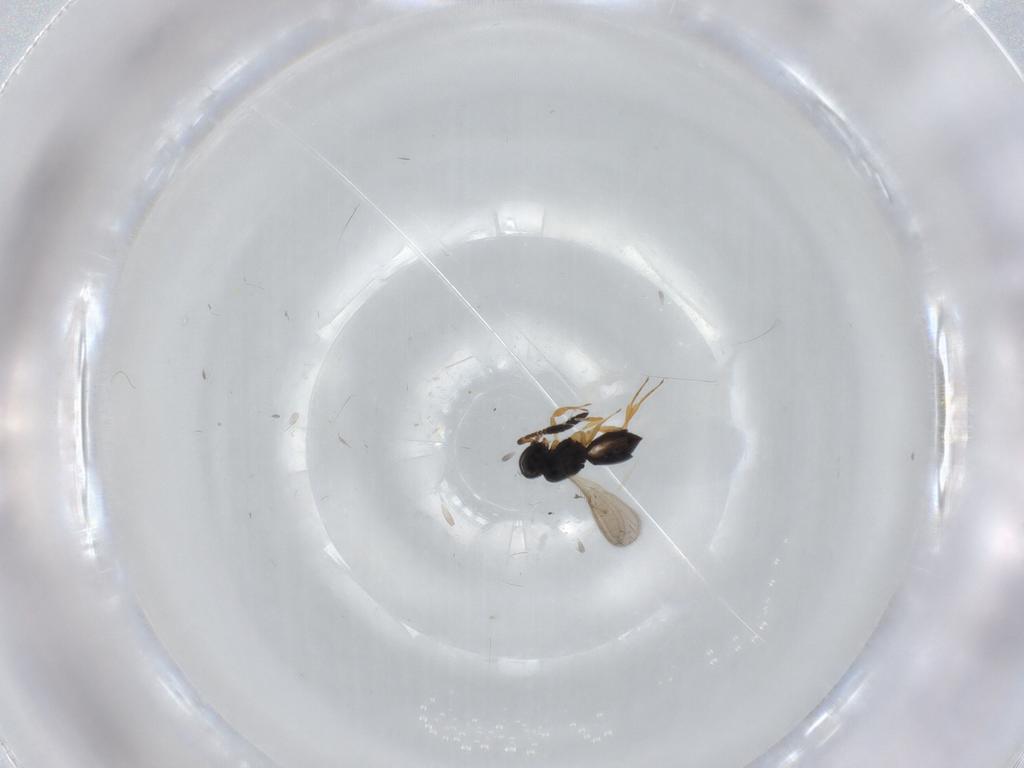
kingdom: Animalia
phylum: Arthropoda
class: Insecta
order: Hymenoptera
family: Scelionidae
